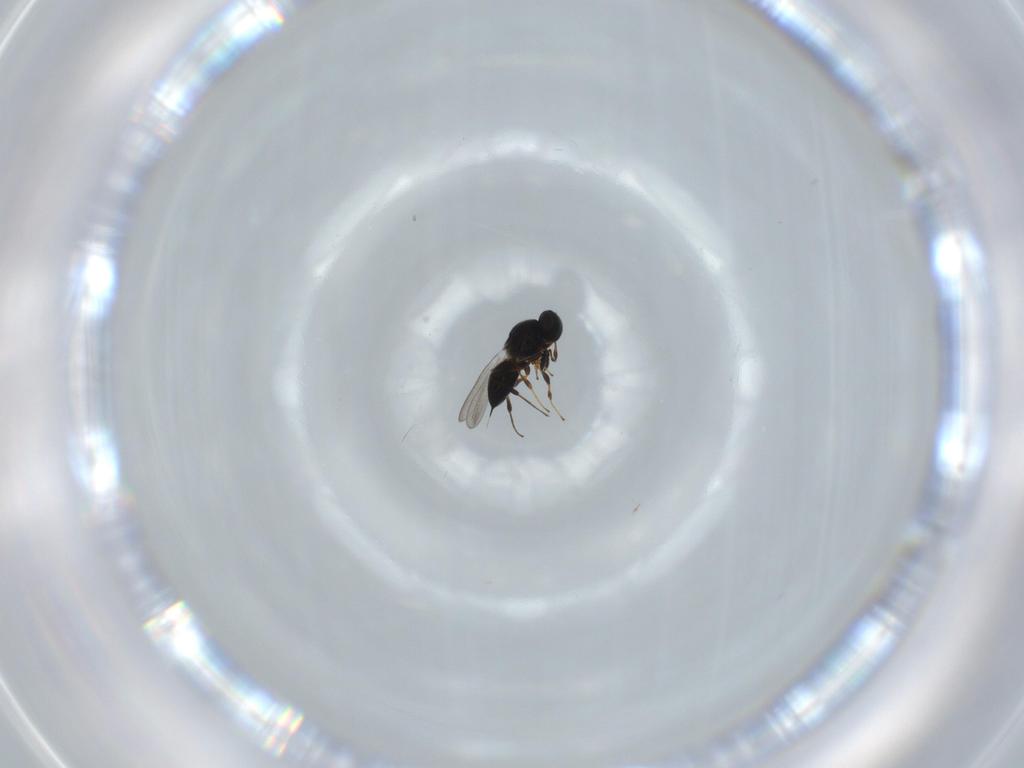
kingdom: Animalia
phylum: Arthropoda
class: Insecta
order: Hymenoptera
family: Platygastridae
